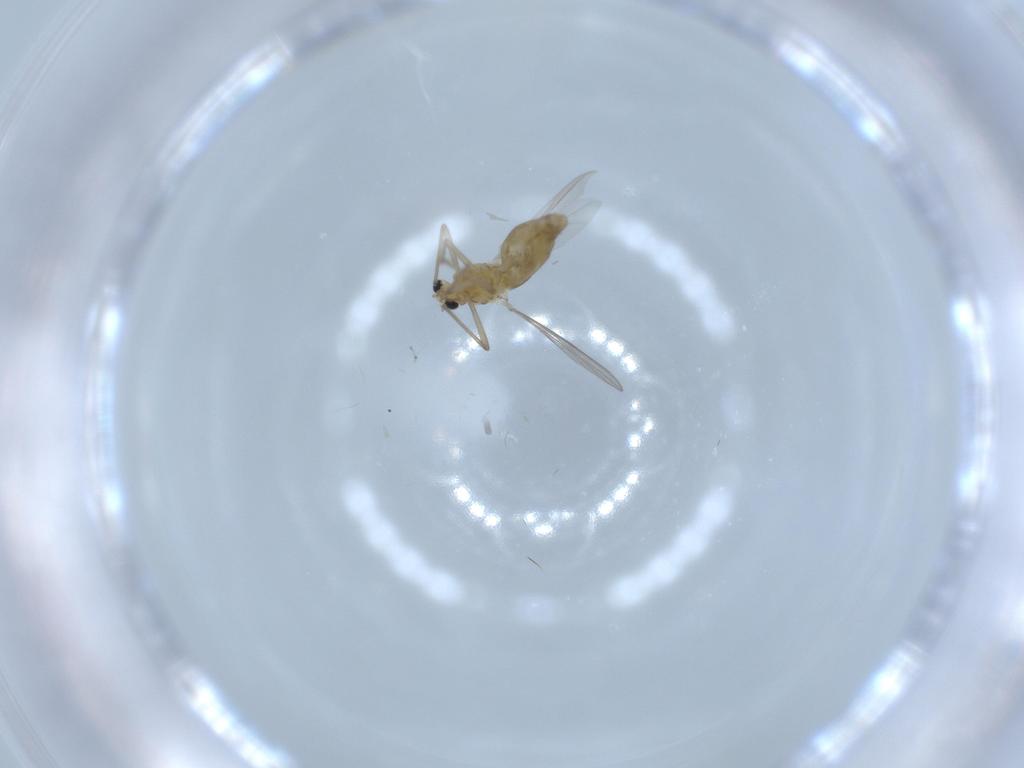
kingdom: Animalia
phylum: Arthropoda
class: Insecta
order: Diptera
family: Chironomidae
